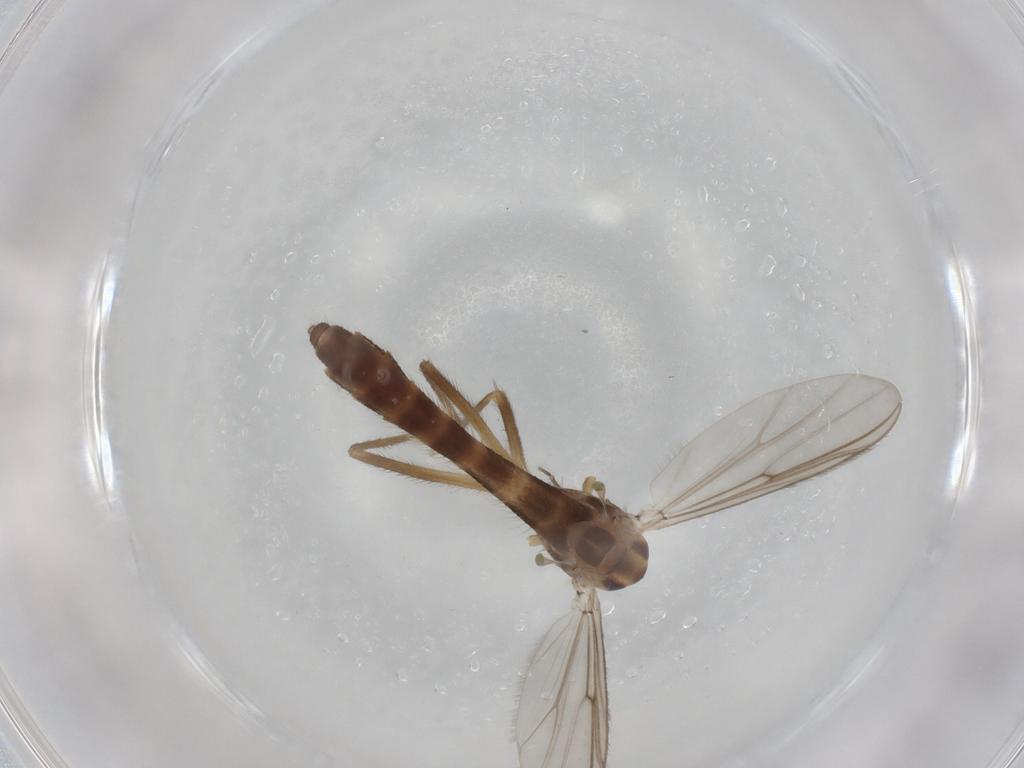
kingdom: Animalia
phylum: Arthropoda
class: Insecta
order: Diptera
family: Chironomidae
